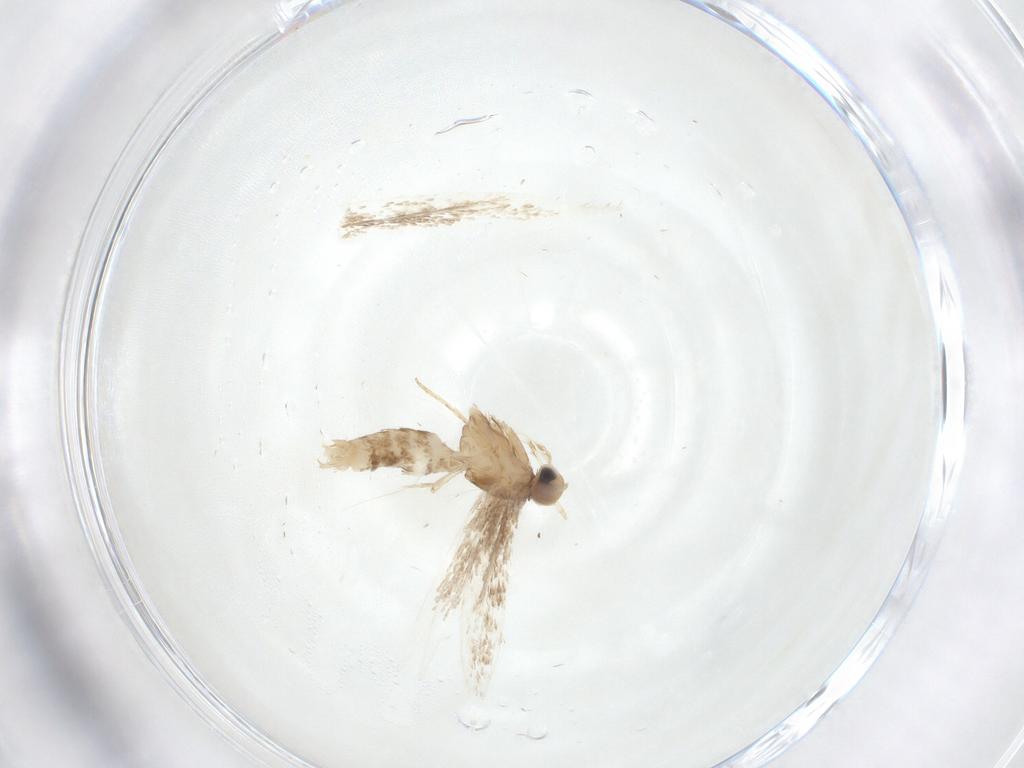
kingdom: Animalia
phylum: Arthropoda
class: Insecta
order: Lepidoptera
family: Tortricidae
